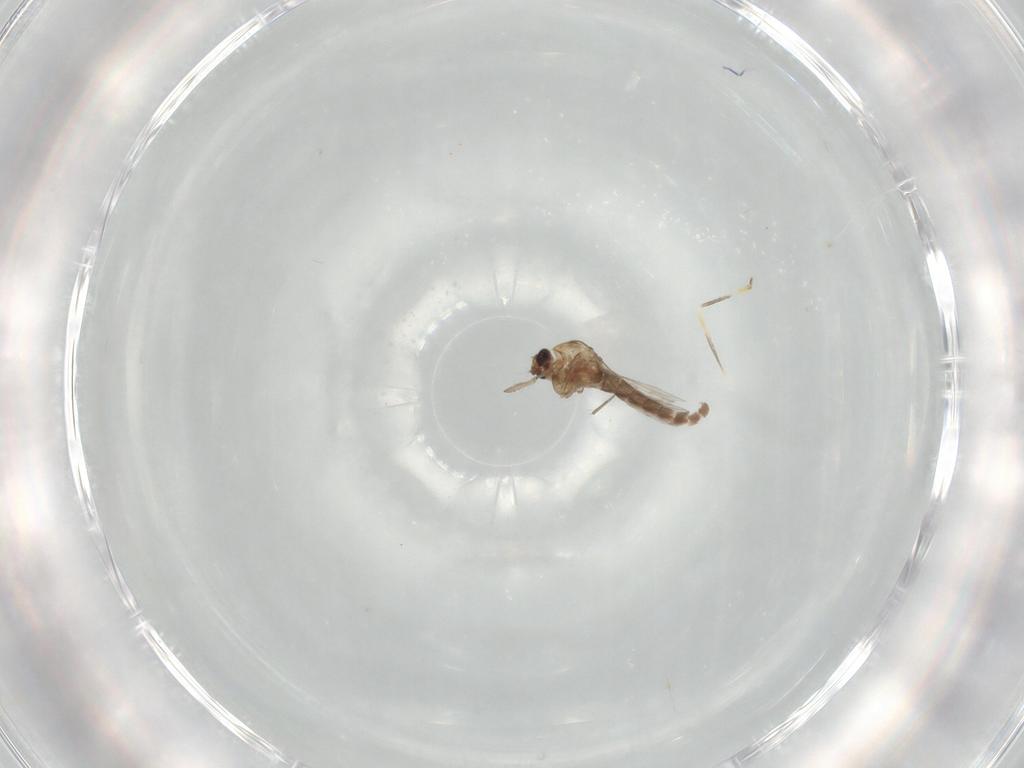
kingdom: Animalia
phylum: Arthropoda
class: Insecta
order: Diptera
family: Chironomidae
